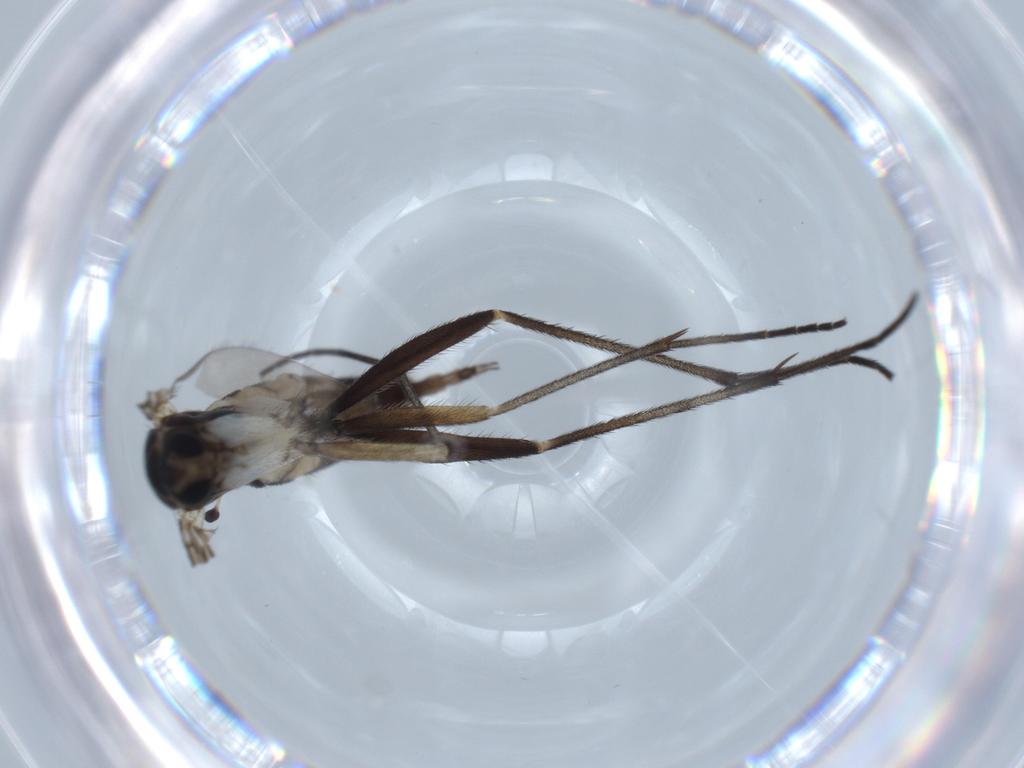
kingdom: Animalia
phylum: Arthropoda
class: Insecta
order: Diptera
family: Sciaridae
